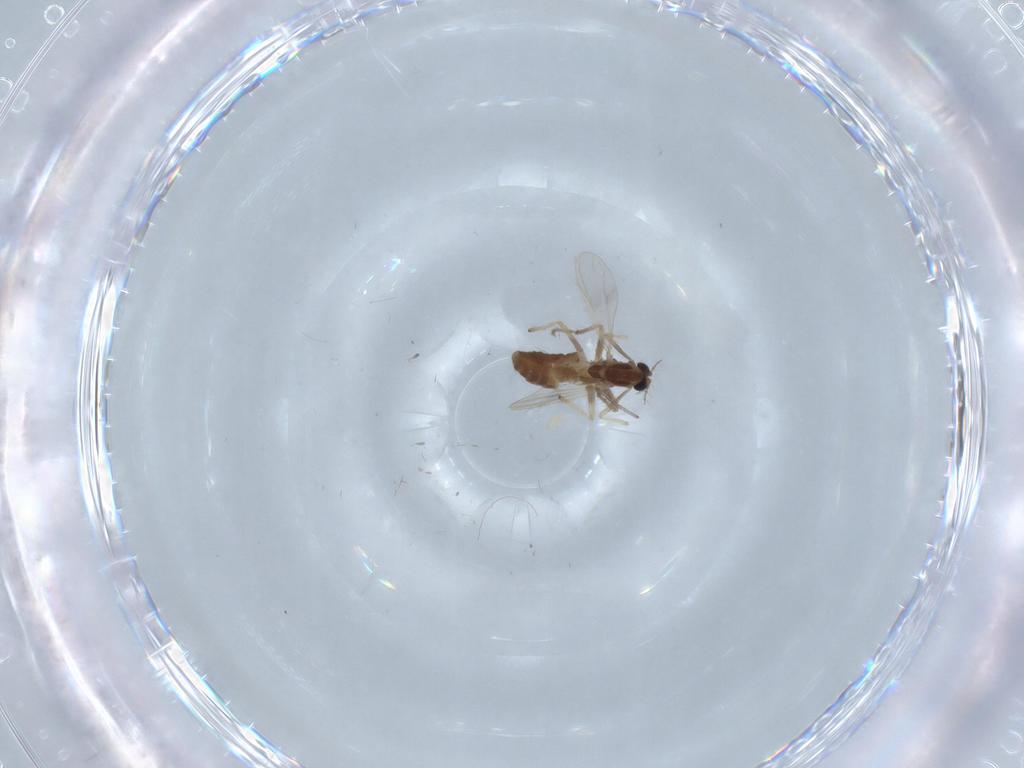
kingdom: Animalia
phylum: Arthropoda
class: Insecta
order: Diptera
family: Chironomidae
